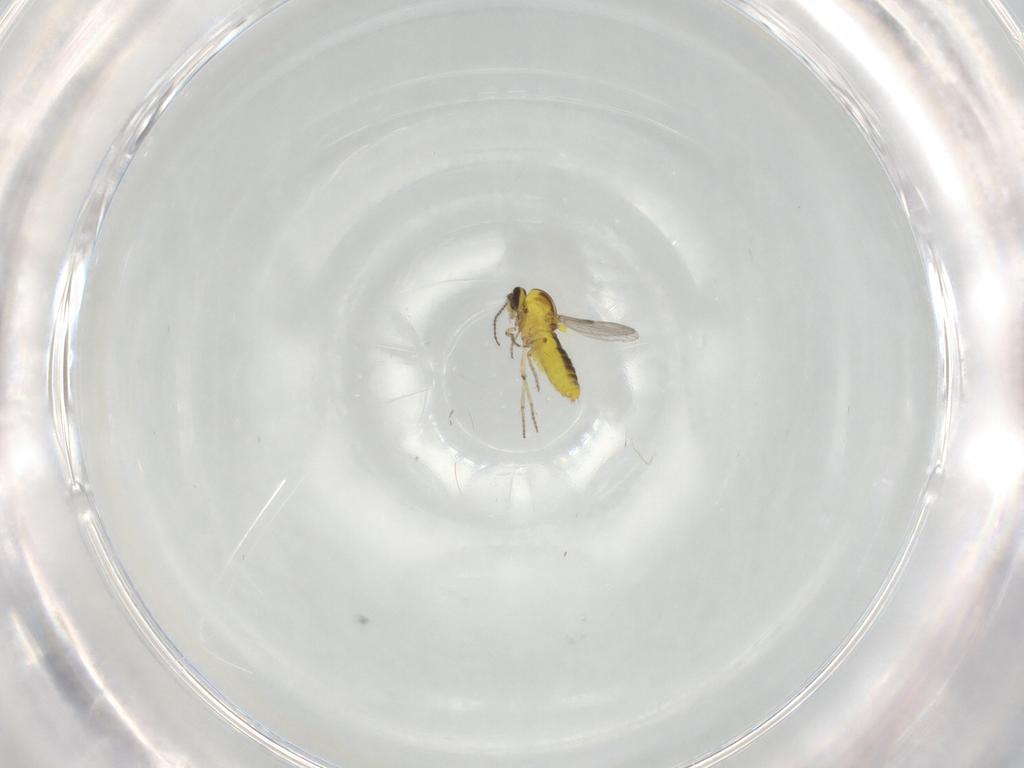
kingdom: Animalia
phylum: Arthropoda
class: Insecta
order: Diptera
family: Ceratopogonidae
